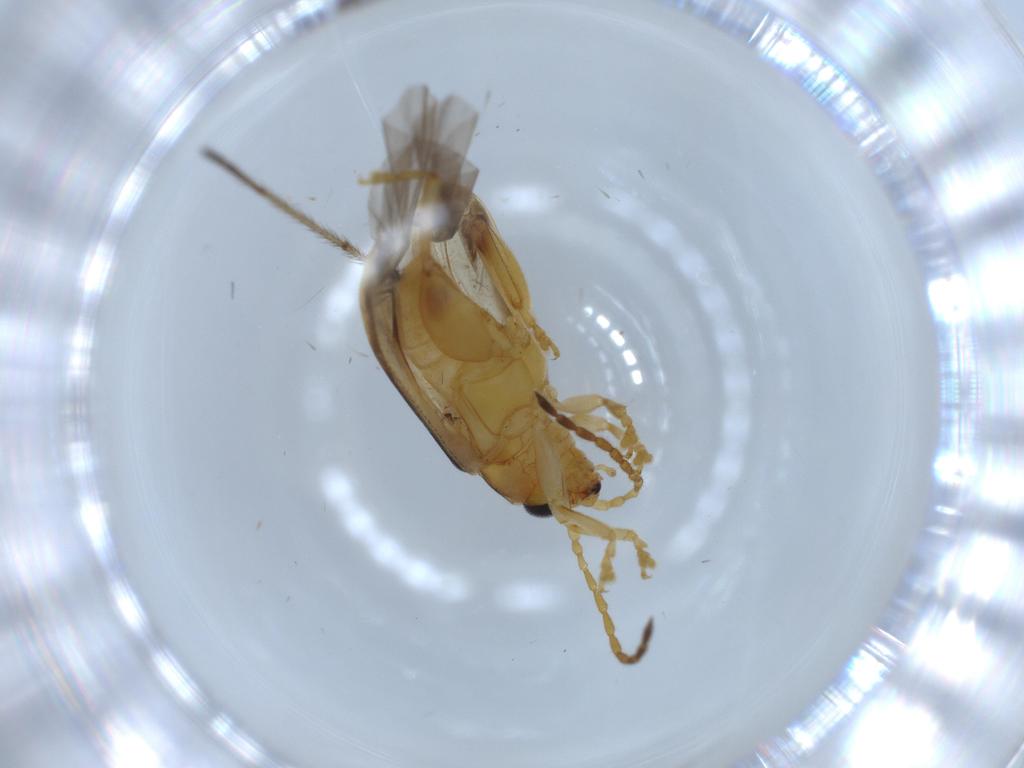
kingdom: Animalia
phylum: Arthropoda
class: Insecta
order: Coleoptera
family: Chrysomelidae
